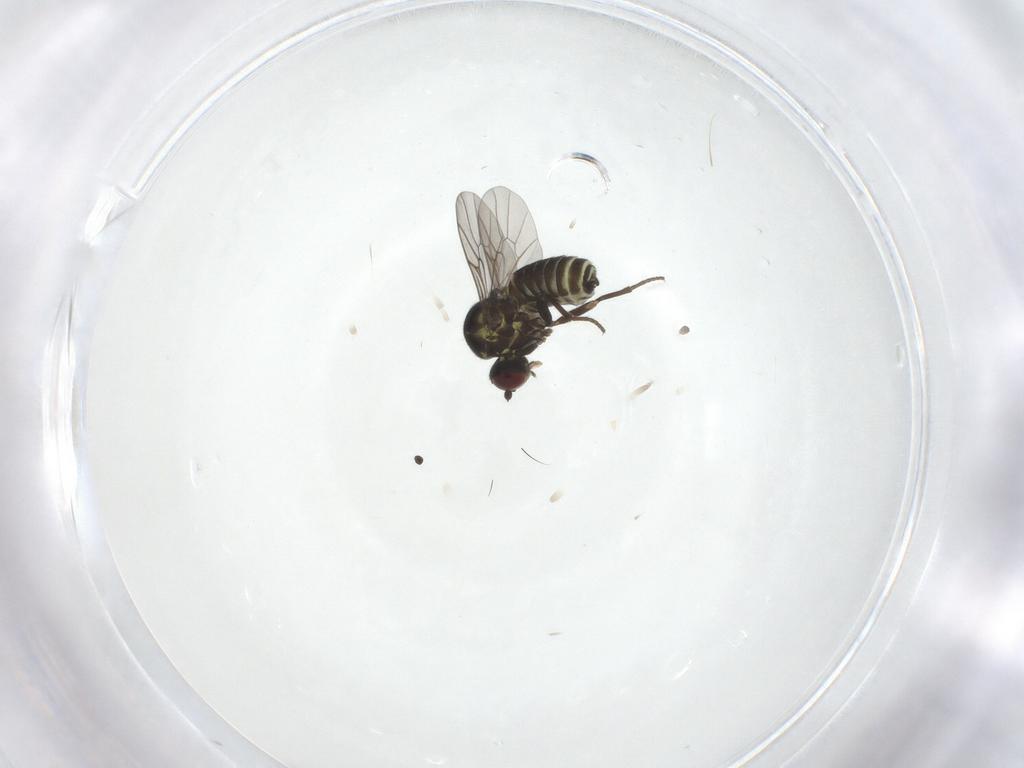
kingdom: Animalia
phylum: Arthropoda
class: Insecta
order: Diptera
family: Mythicomyiidae
